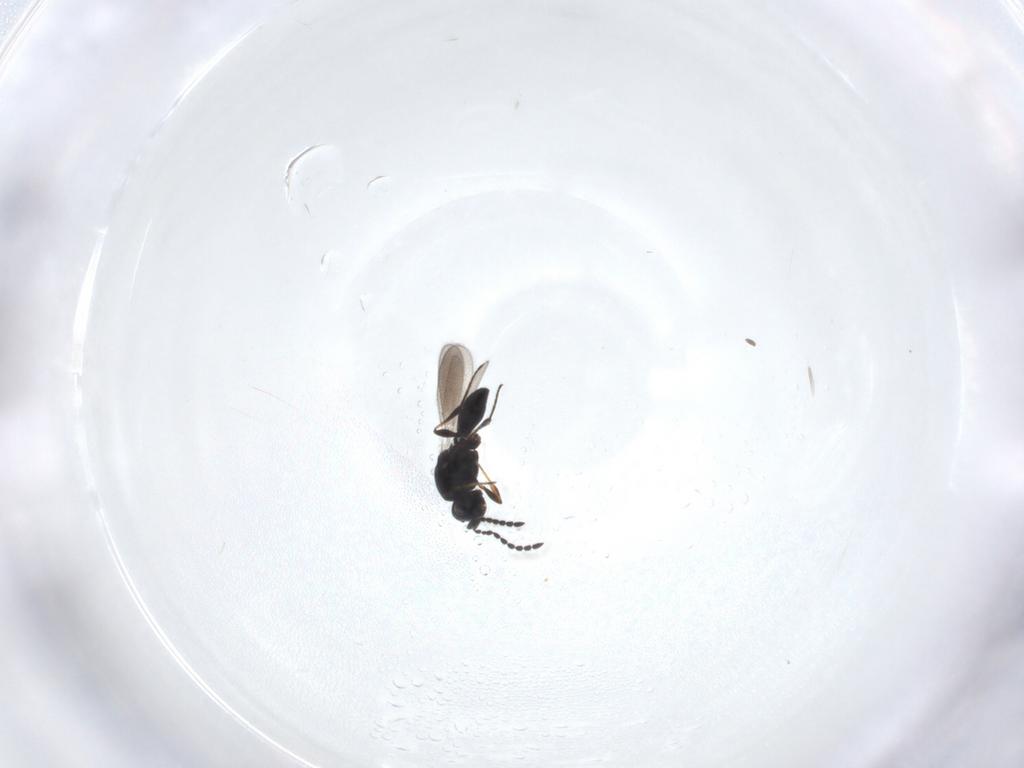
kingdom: Animalia
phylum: Arthropoda
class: Insecta
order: Hymenoptera
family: Platygastridae
